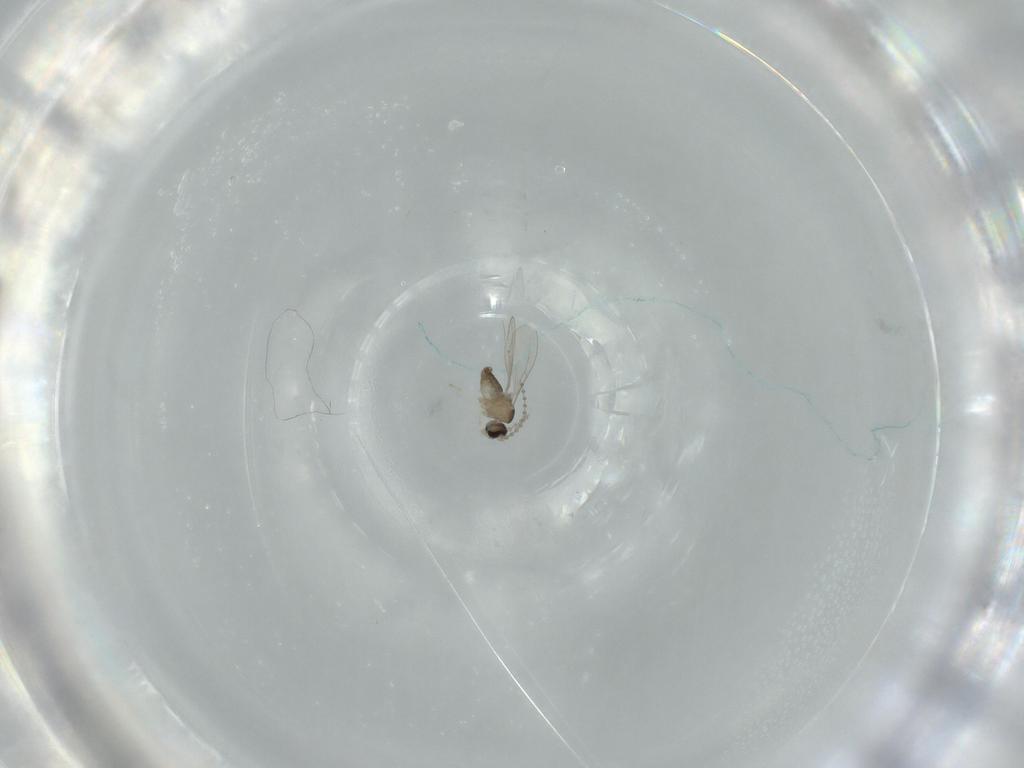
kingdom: Animalia
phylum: Arthropoda
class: Insecta
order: Diptera
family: Cecidomyiidae
